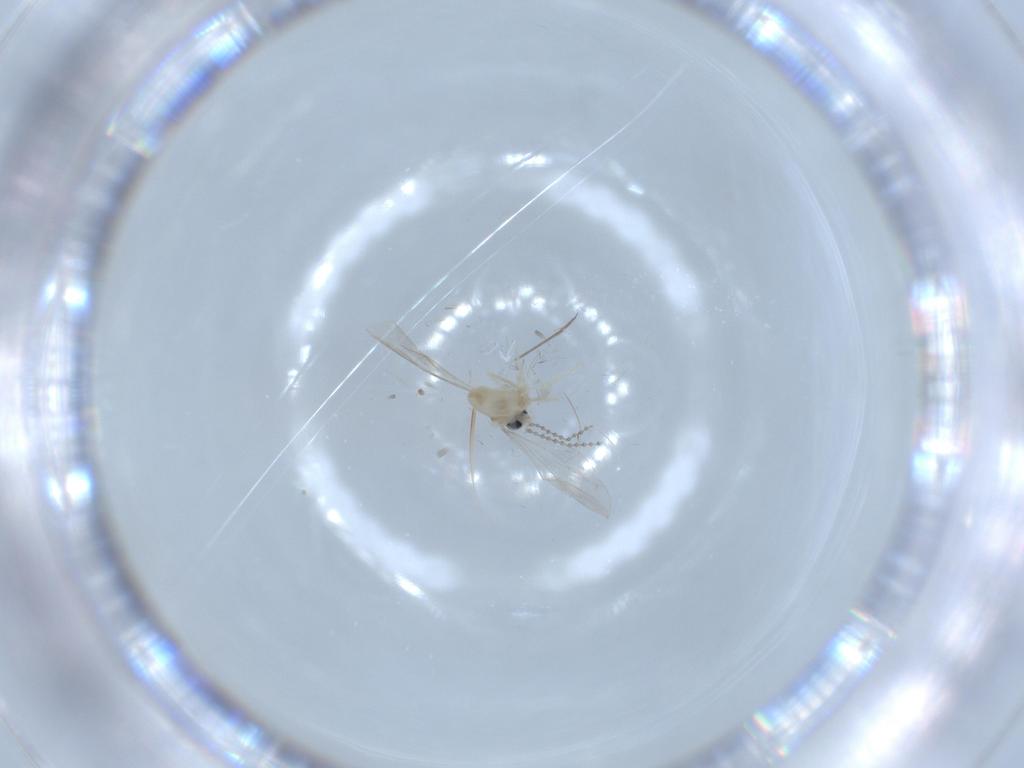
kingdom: Animalia
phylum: Arthropoda
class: Insecta
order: Diptera
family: Cecidomyiidae
